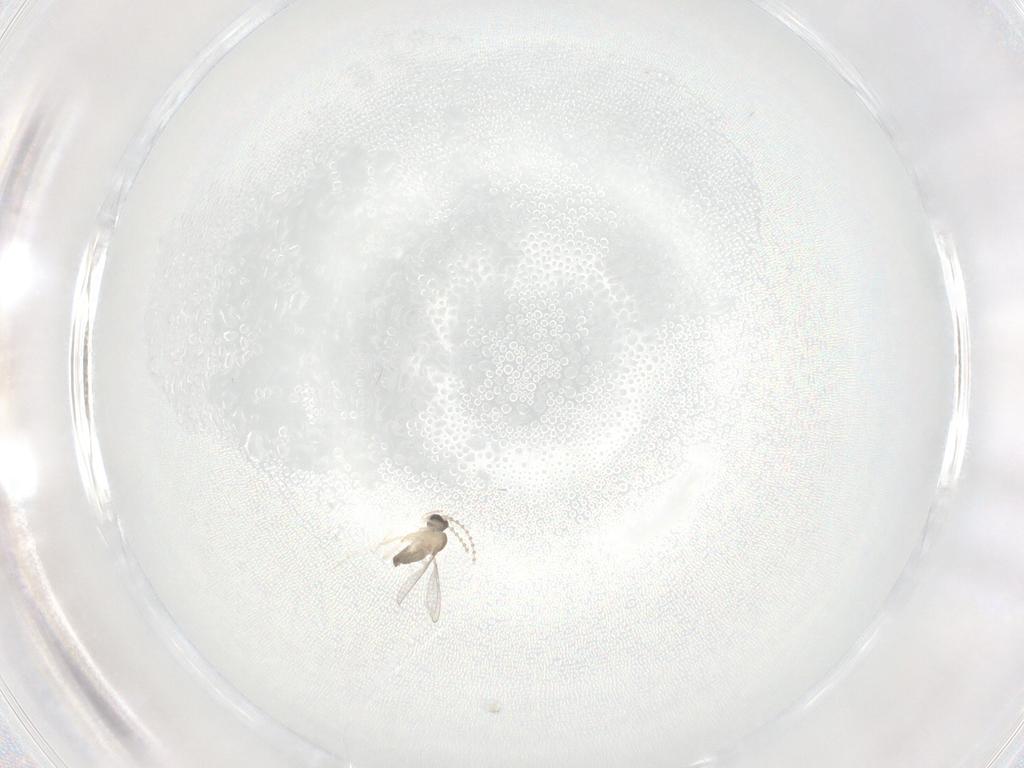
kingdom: Animalia
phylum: Arthropoda
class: Insecta
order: Diptera
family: Cecidomyiidae
